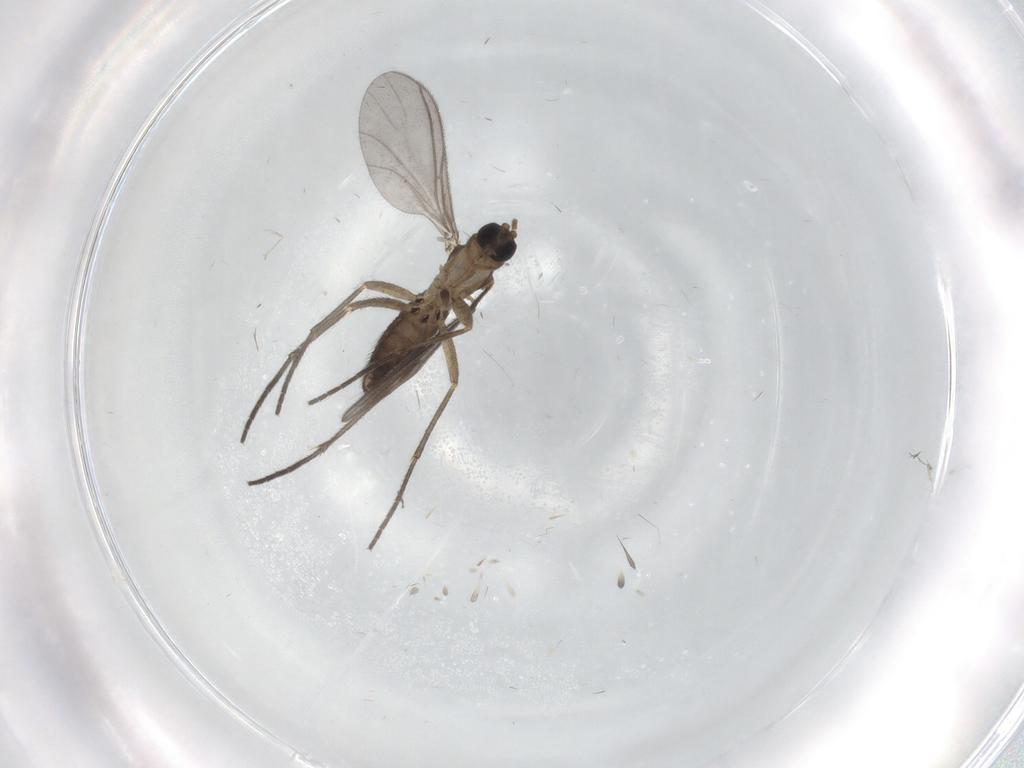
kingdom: Animalia
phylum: Arthropoda
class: Insecta
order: Diptera
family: Sciaridae
